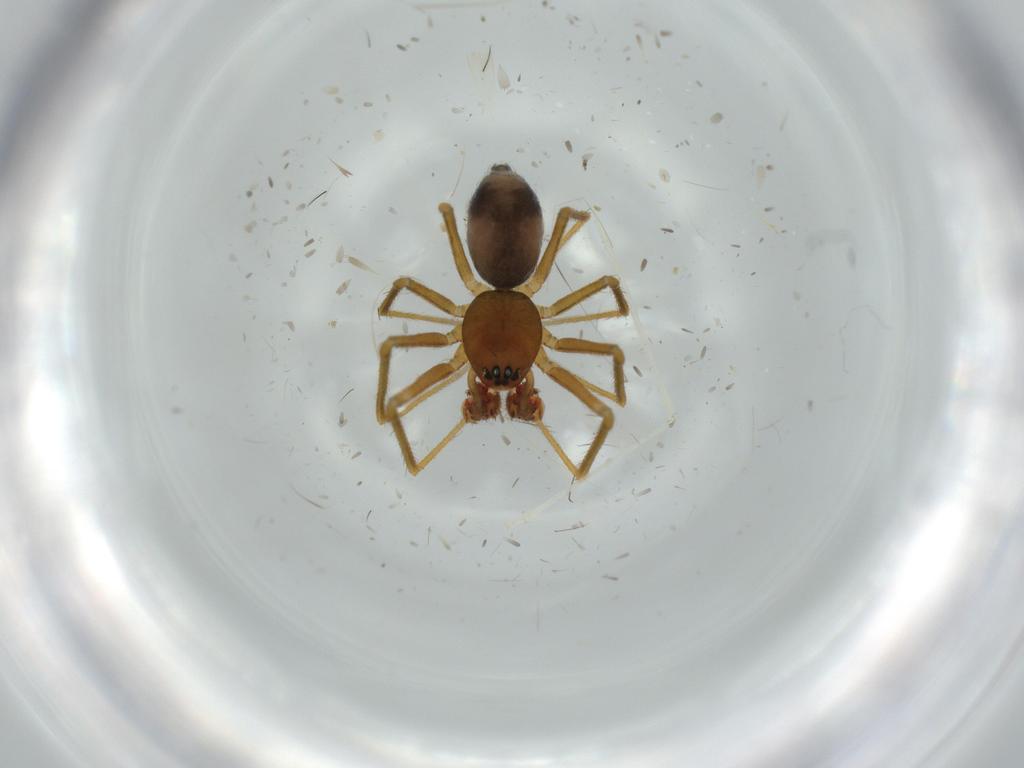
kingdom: Animalia
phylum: Arthropoda
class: Arachnida
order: Araneae
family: Linyphiidae
